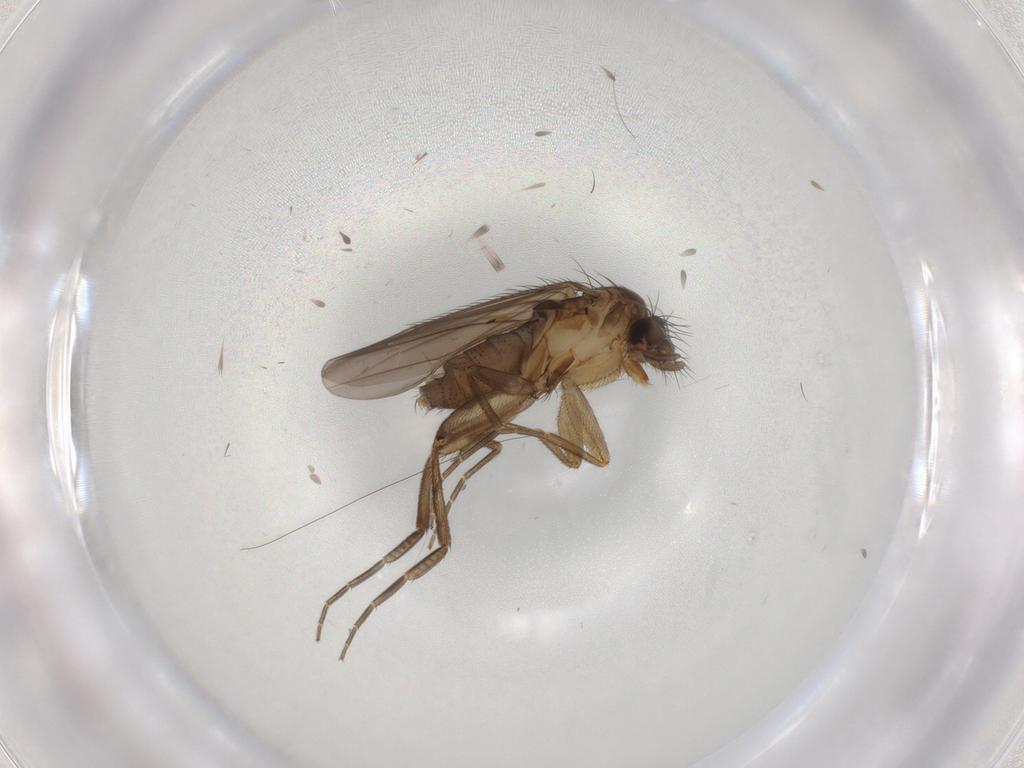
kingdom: Animalia
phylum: Arthropoda
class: Insecta
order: Diptera
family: Phoridae
